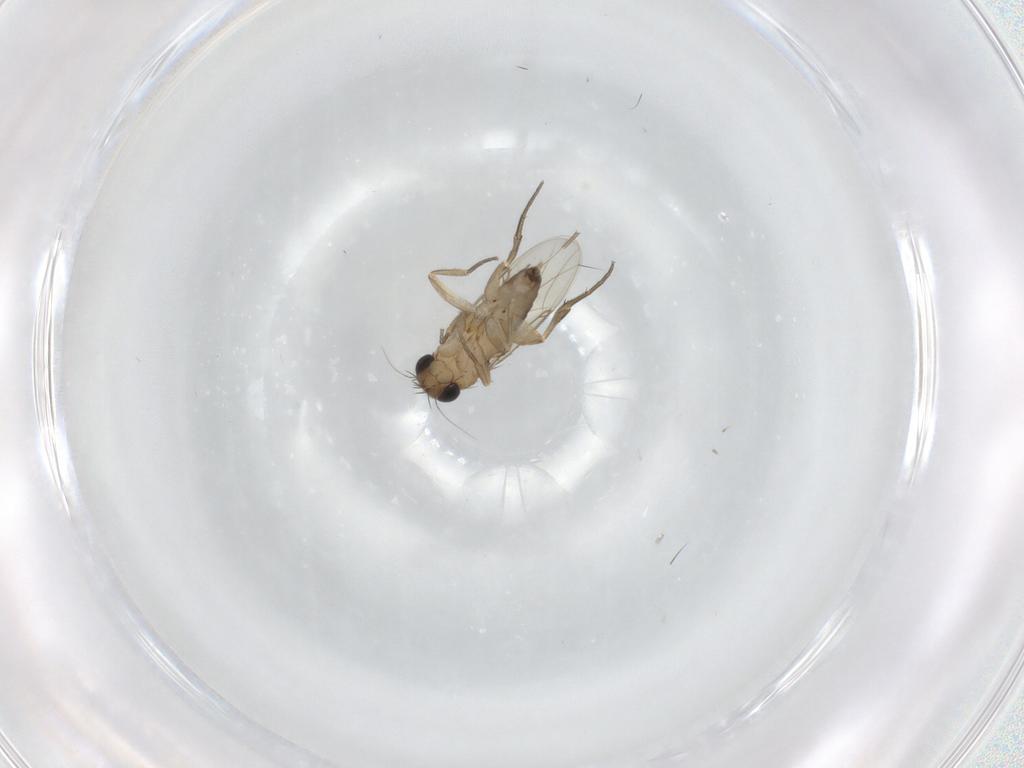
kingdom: Animalia
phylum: Arthropoda
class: Insecta
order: Diptera
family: Phoridae
